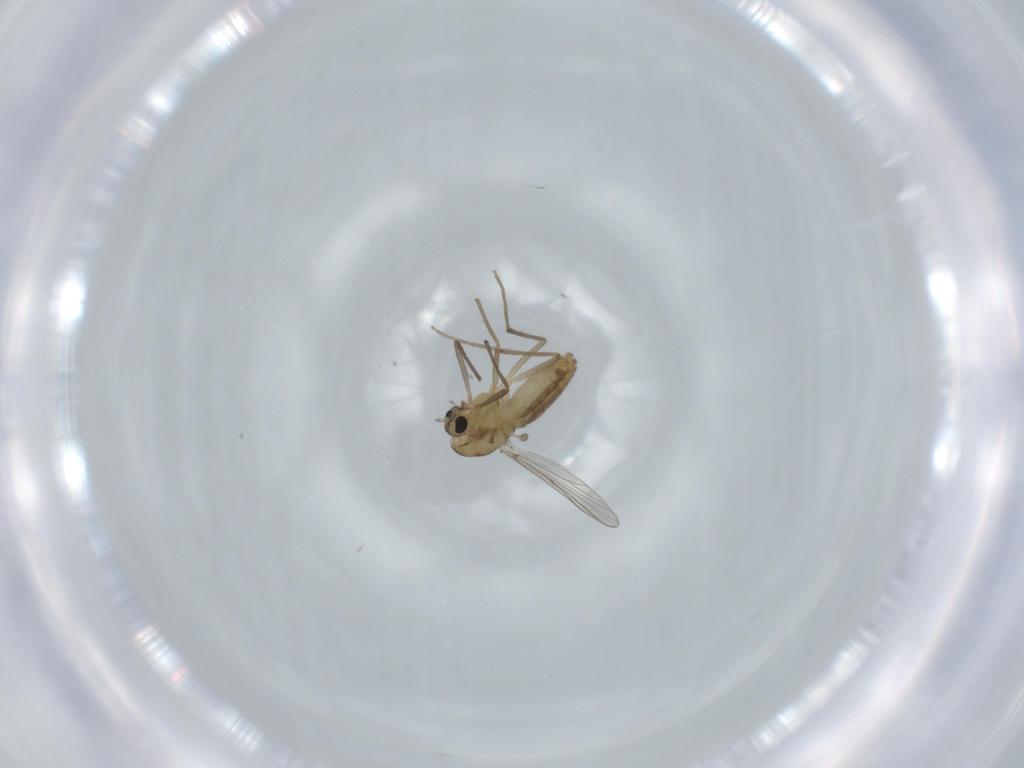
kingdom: Animalia
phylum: Arthropoda
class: Insecta
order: Diptera
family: Chironomidae
